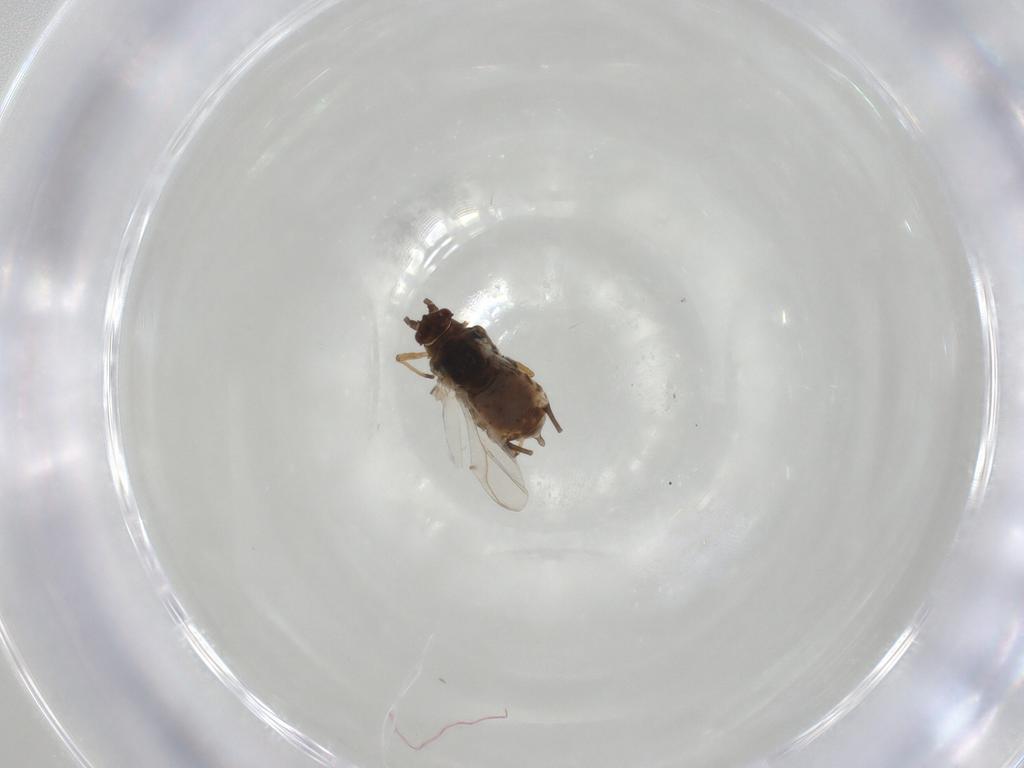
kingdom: Animalia
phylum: Arthropoda
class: Insecta
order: Hemiptera
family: Aphididae
